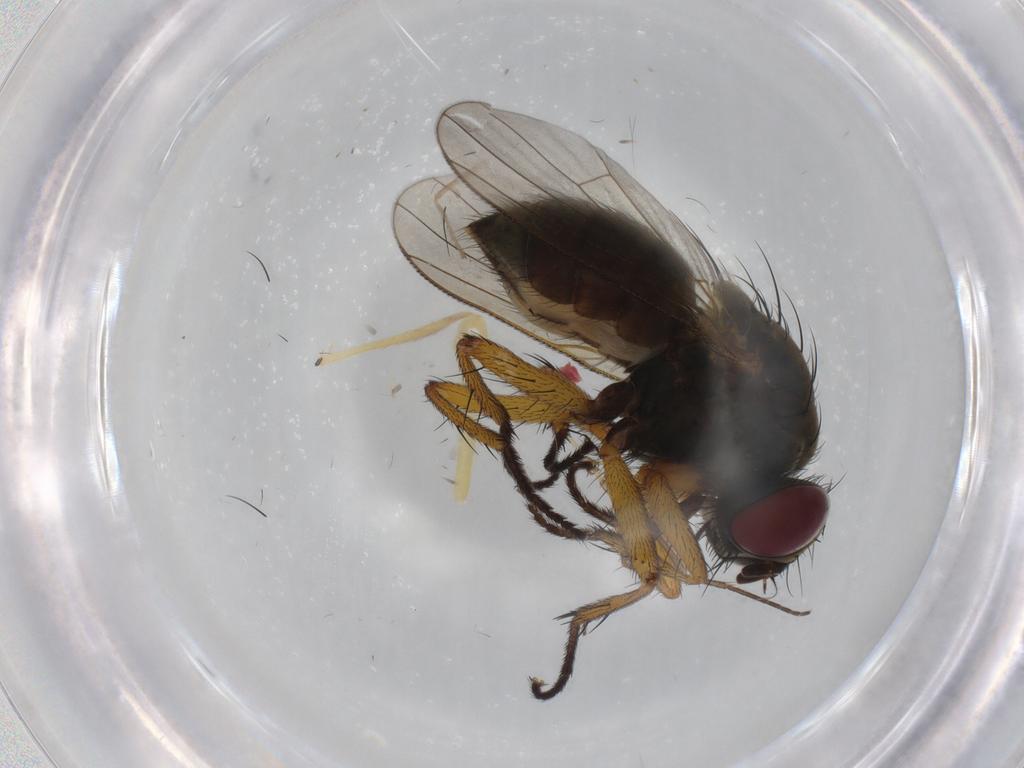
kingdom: Animalia
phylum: Arthropoda
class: Insecta
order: Diptera
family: Muscidae
